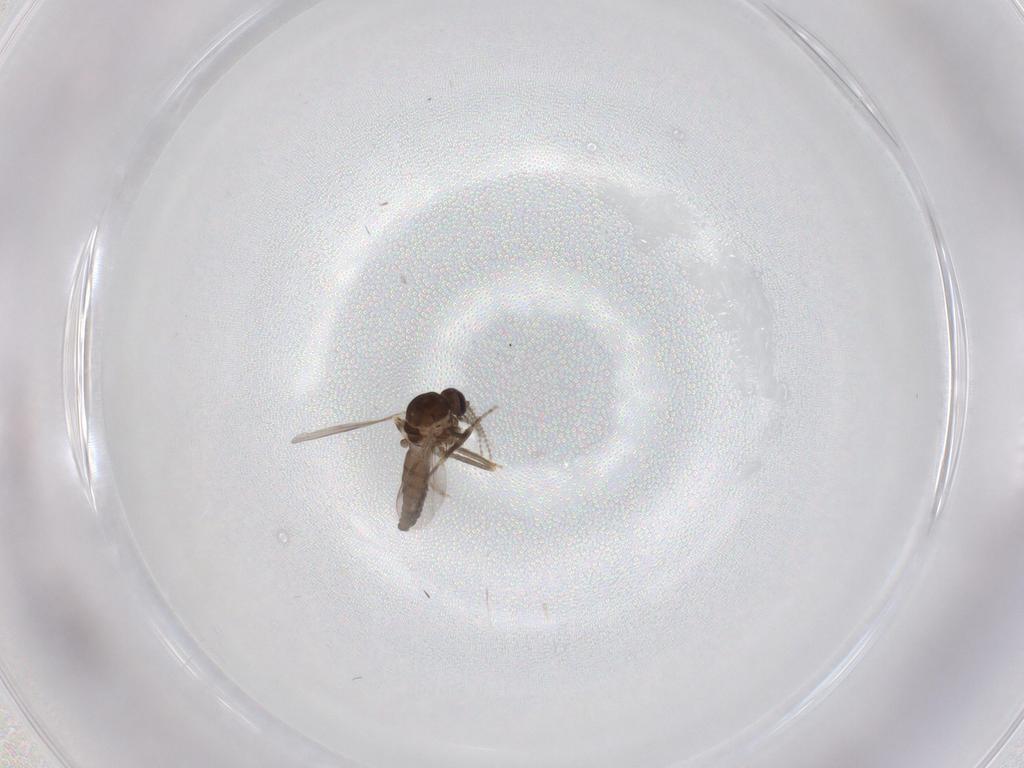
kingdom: Animalia
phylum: Arthropoda
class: Insecta
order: Diptera
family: Ceratopogonidae
